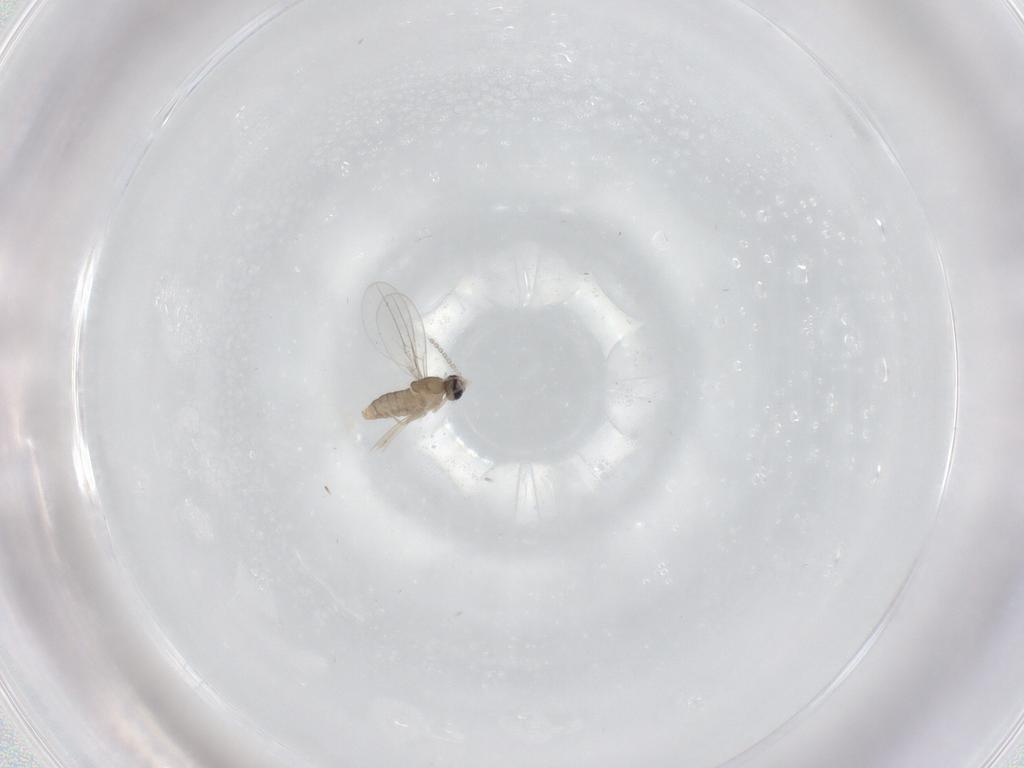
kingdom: Animalia
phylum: Arthropoda
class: Insecta
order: Diptera
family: Cecidomyiidae
